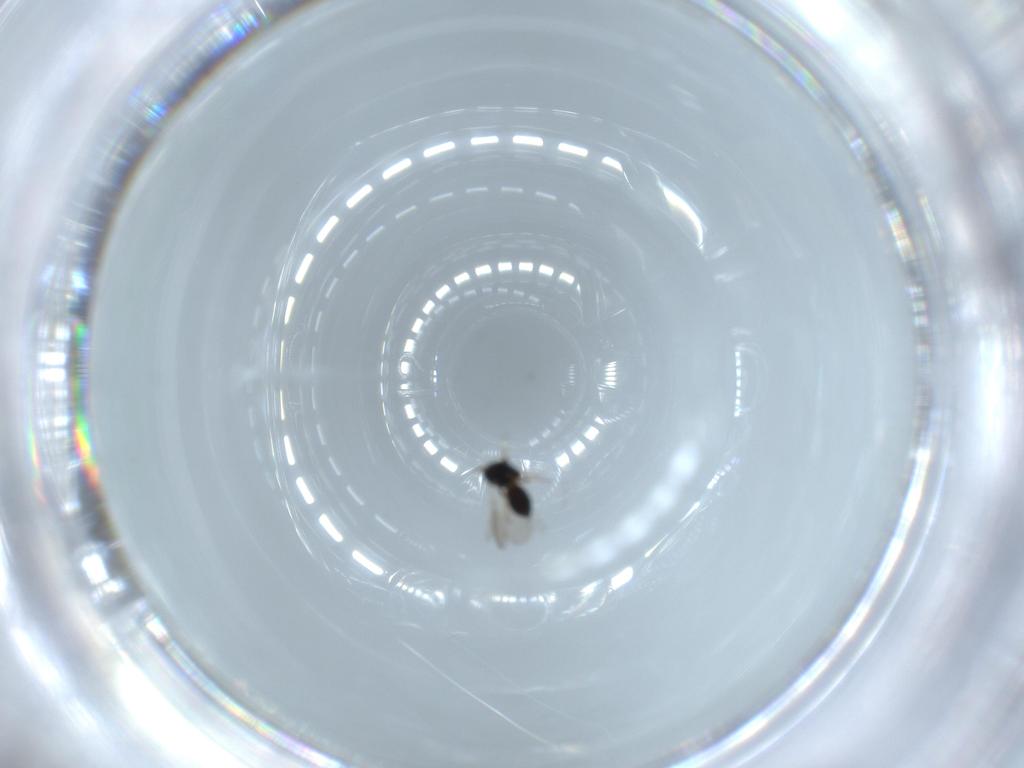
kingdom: Animalia
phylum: Arthropoda
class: Insecta
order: Hymenoptera
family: Scelionidae
